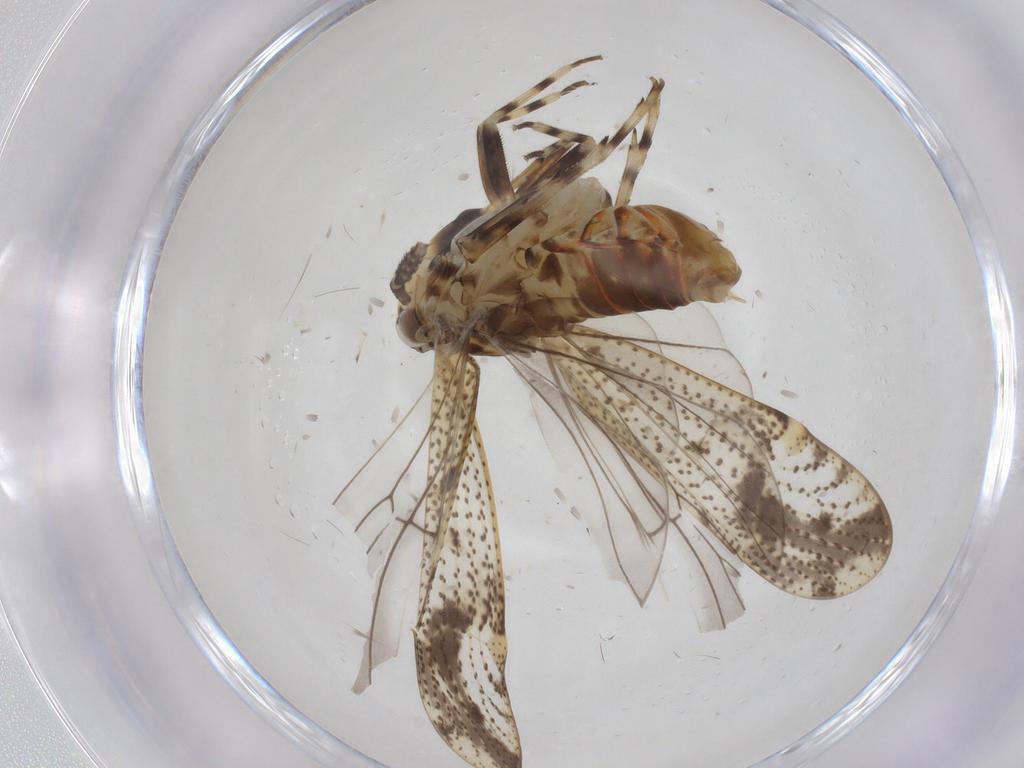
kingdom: Animalia
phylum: Arthropoda
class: Insecta
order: Hemiptera
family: Delphacidae
